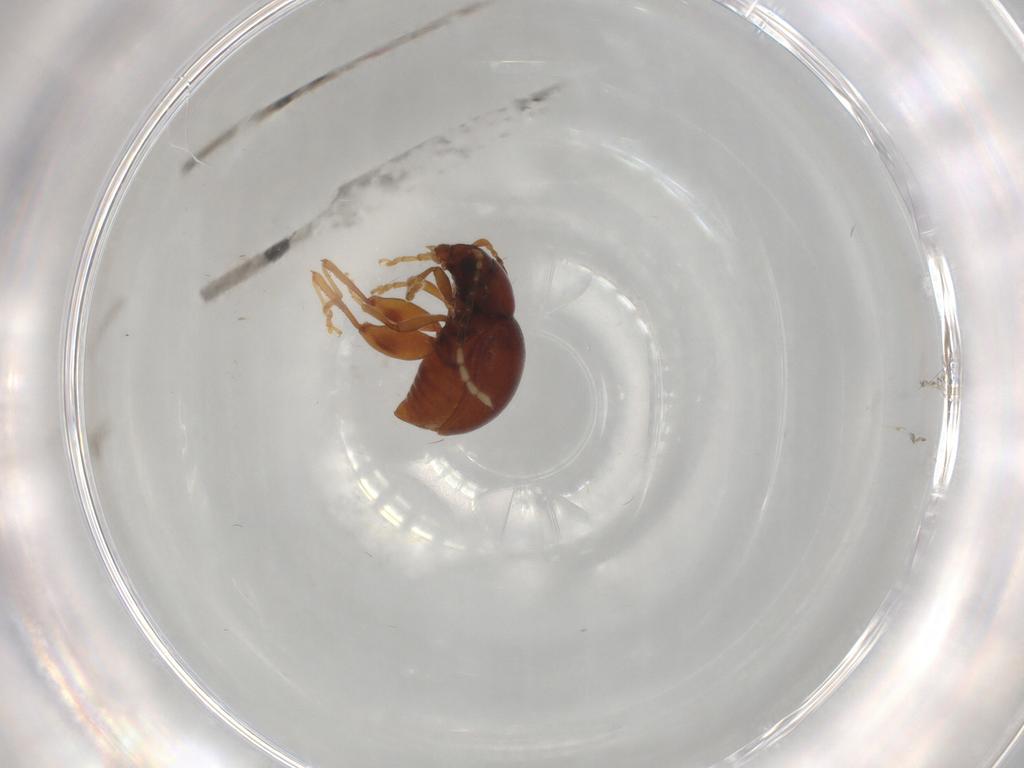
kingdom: Animalia
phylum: Arthropoda
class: Insecta
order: Coleoptera
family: Chrysomelidae
